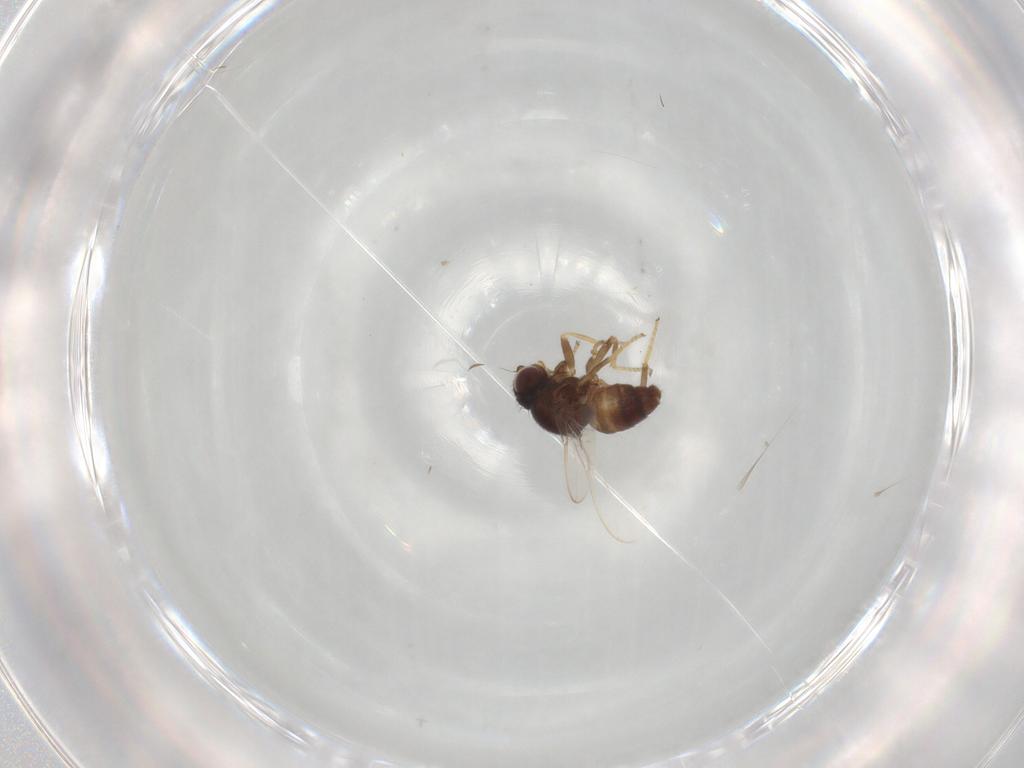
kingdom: Animalia
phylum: Arthropoda
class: Insecta
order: Diptera
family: Chloropidae
